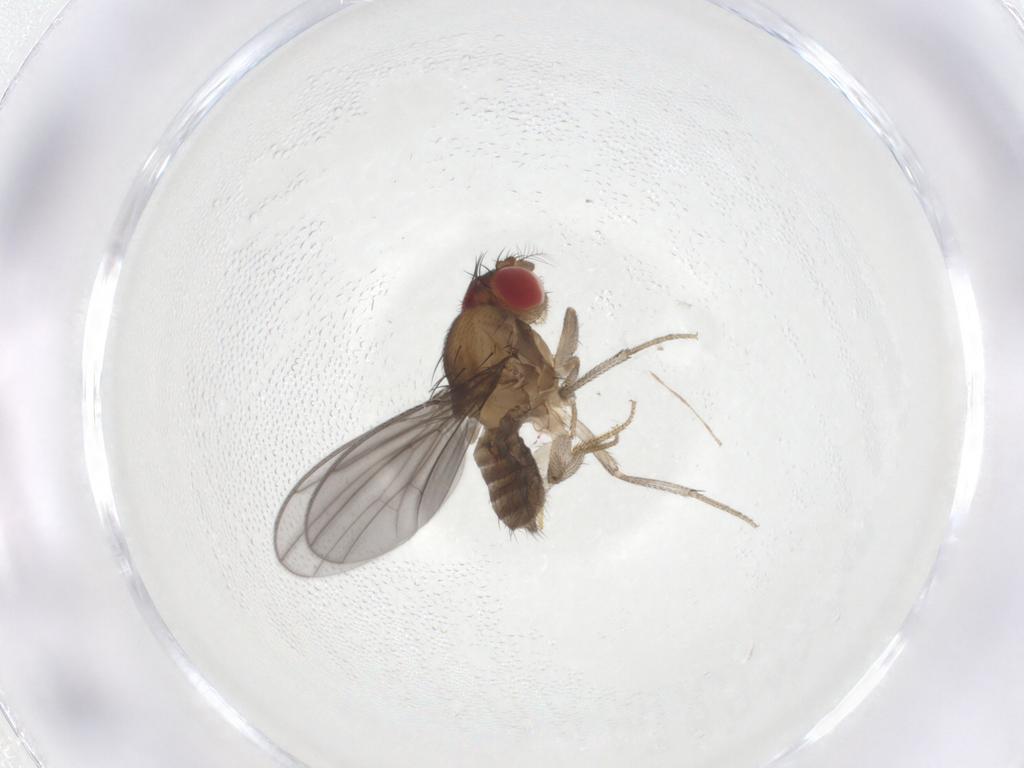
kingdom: Animalia
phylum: Arthropoda
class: Insecta
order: Diptera
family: Drosophilidae
